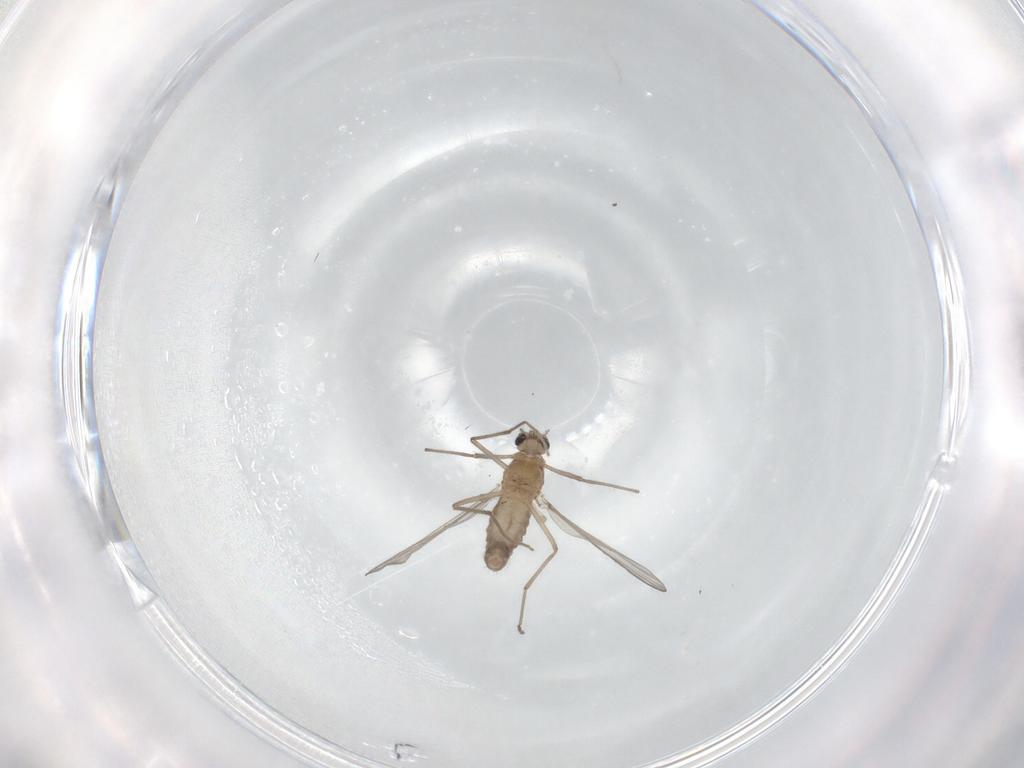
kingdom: Animalia
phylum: Arthropoda
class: Insecta
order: Diptera
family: Chironomidae
